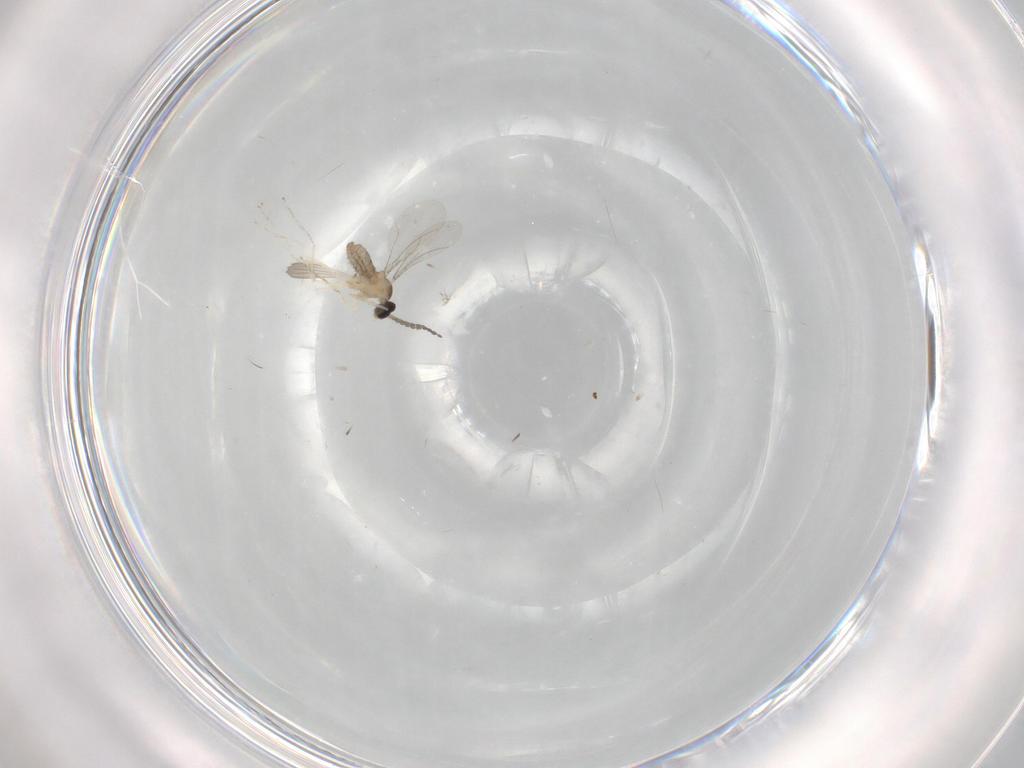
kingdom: Animalia
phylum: Arthropoda
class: Insecta
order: Diptera
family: Cecidomyiidae
